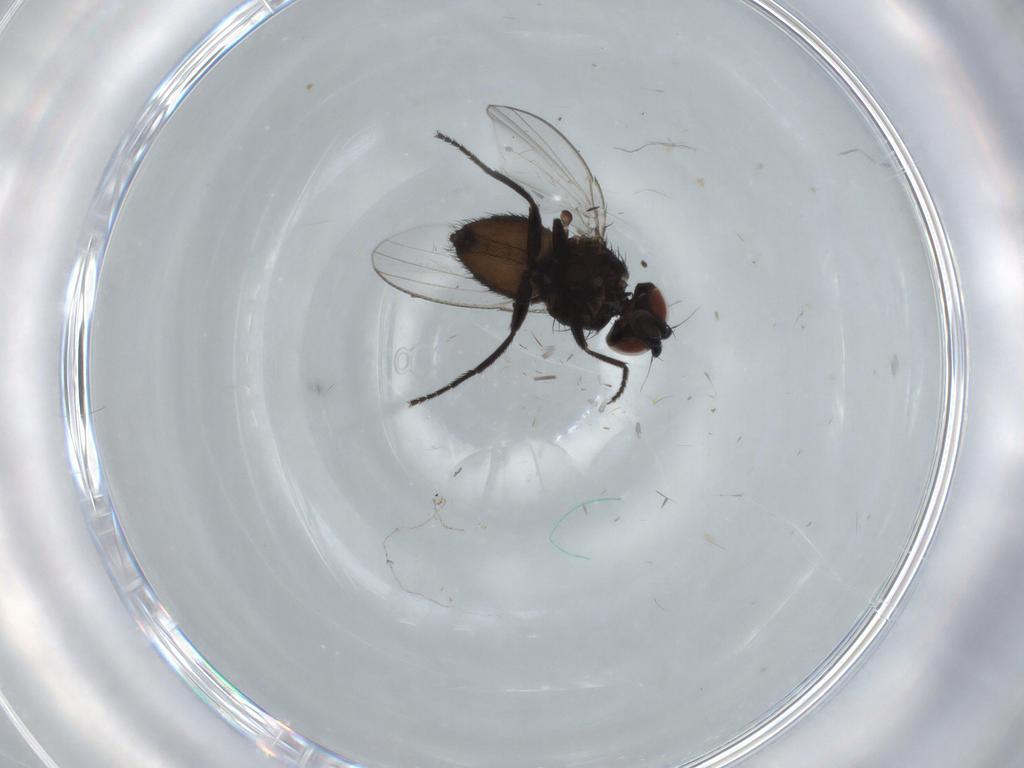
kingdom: Animalia
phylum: Arthropoda
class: Insecta
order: Diptera
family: Milichiidae
